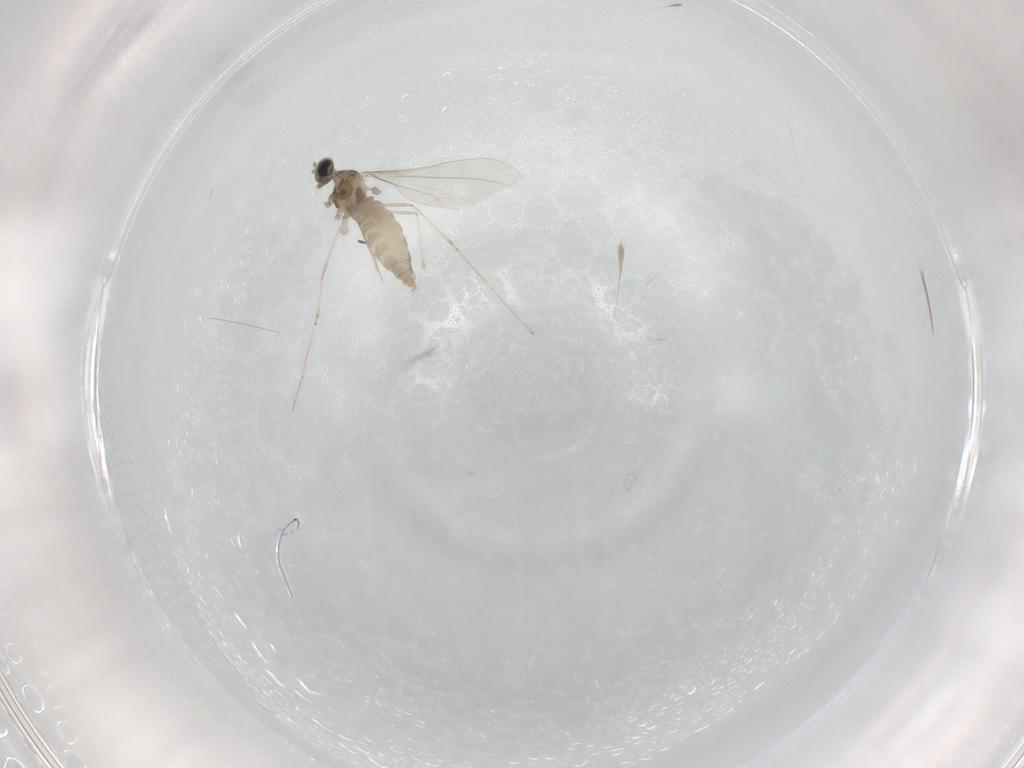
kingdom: Animalia
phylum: Arthropoda
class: Insecta
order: Diptera
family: Cecidomyiidae
